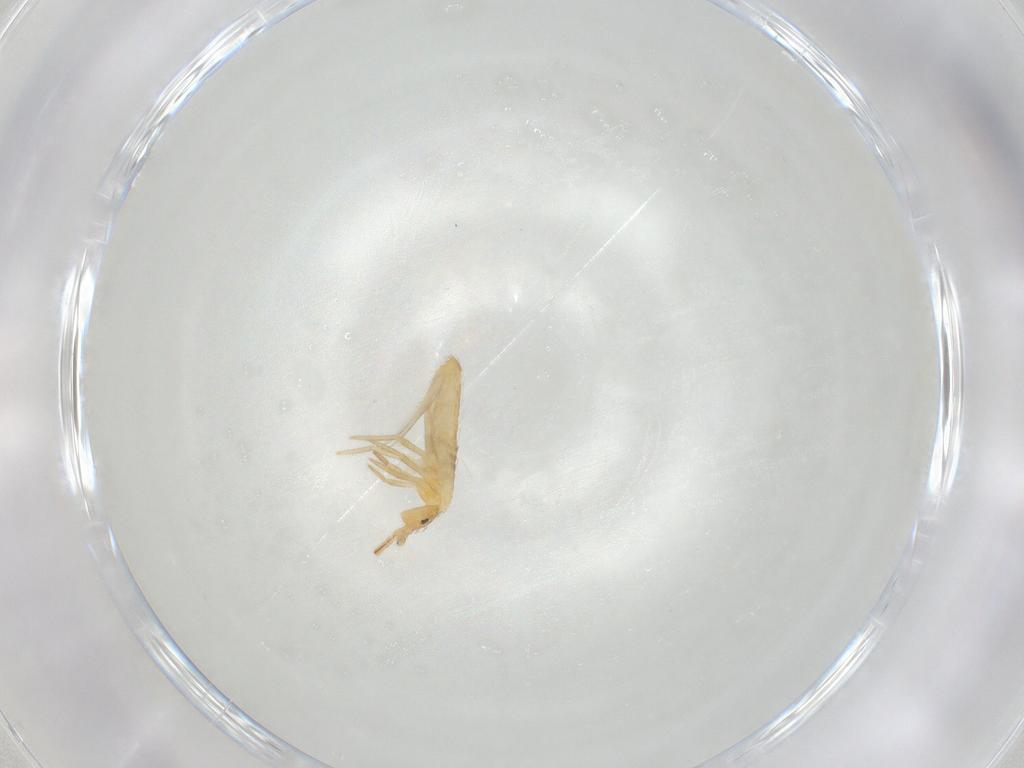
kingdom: Animalia
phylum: Arthropoda
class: Collembola
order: Entomobryomorpha
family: Entomobryidae
